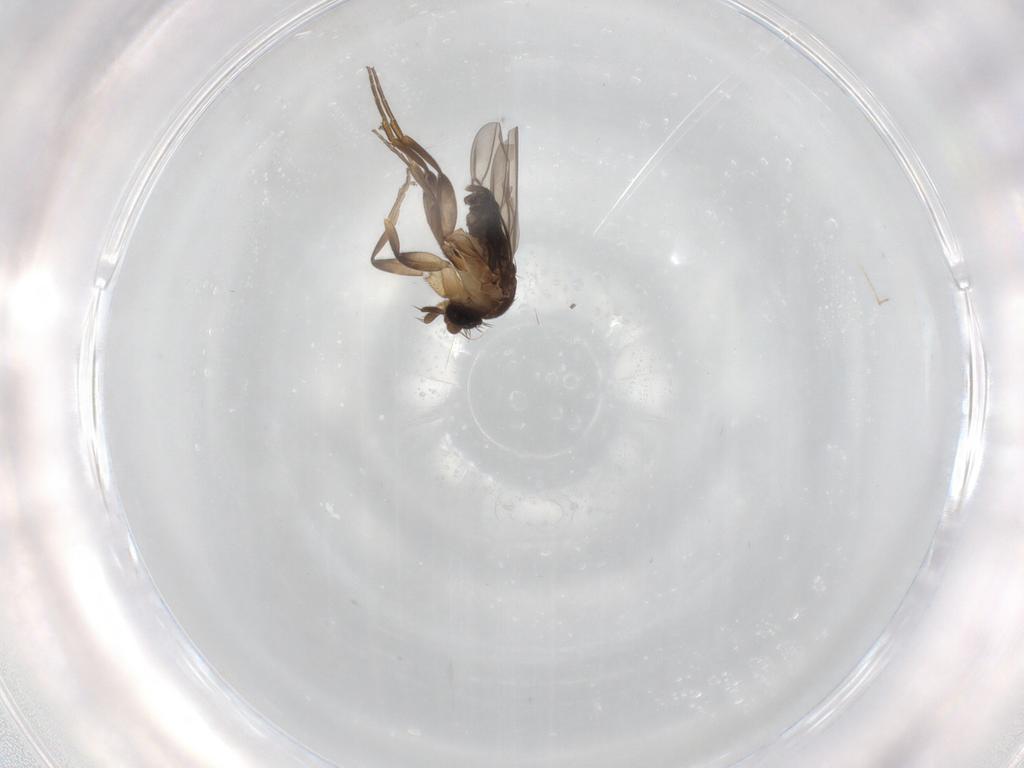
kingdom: Animalia
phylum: Arthropoda
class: Insecta
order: Diptera
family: Phoridae
